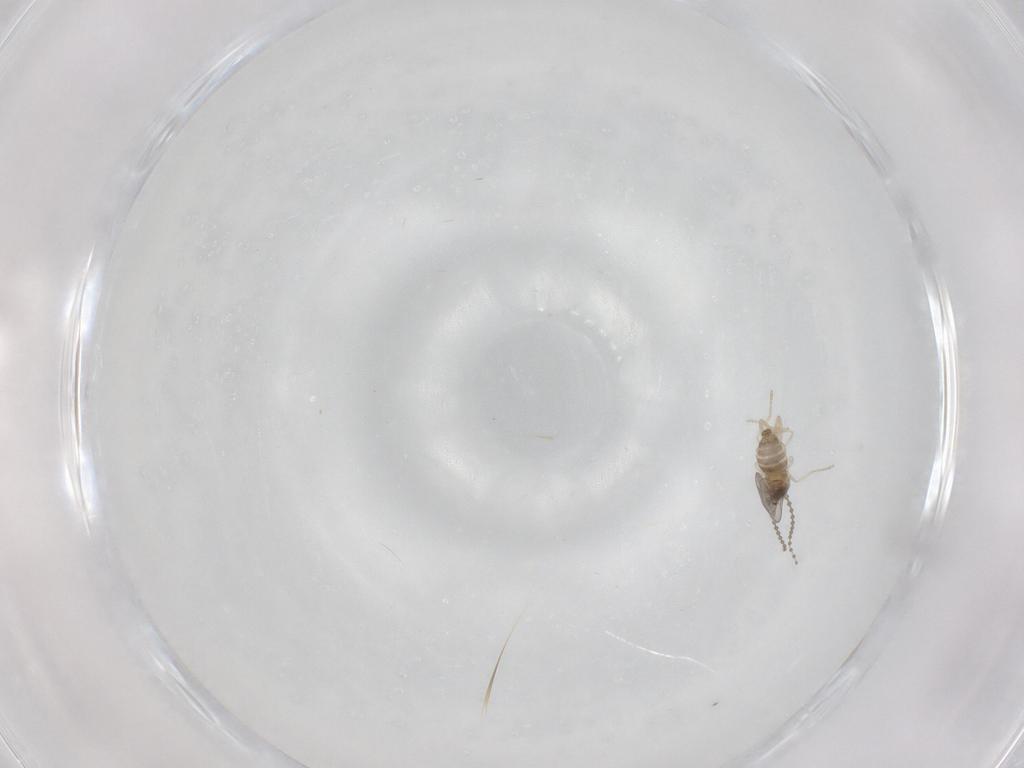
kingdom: Animalia
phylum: Arthropoda
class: Insecta
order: Diptera
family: Cecidomyiidae
